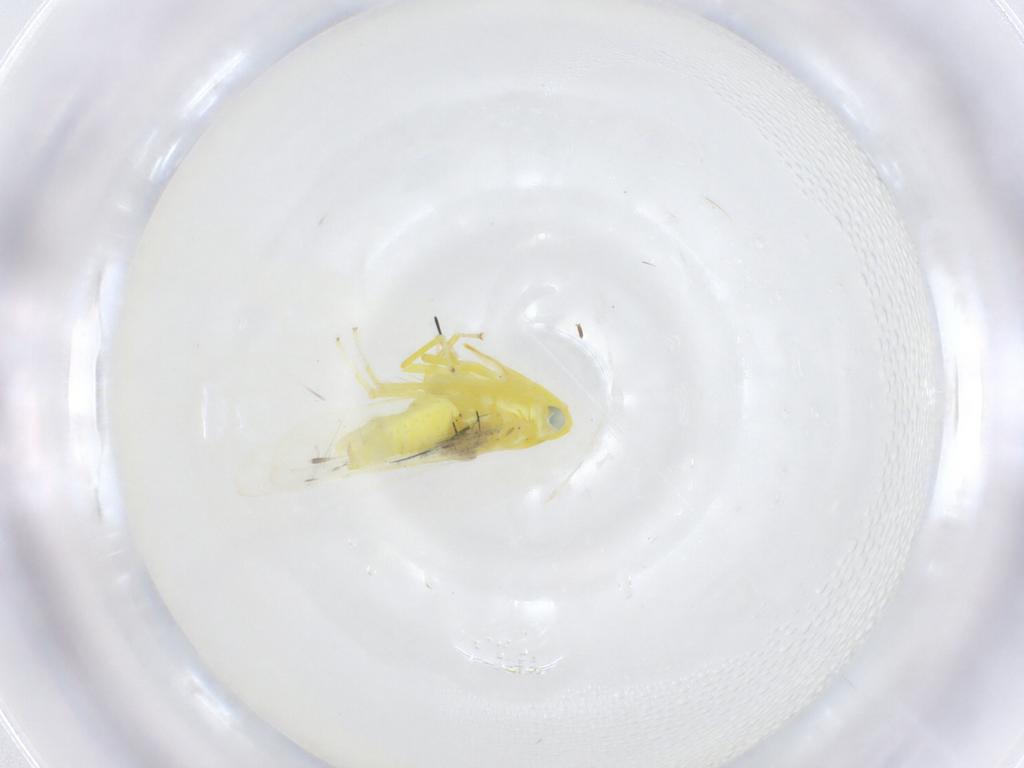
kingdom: Animalia
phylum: Arthropoda
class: Insecta
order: Hemiptera
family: Cicadellidae
